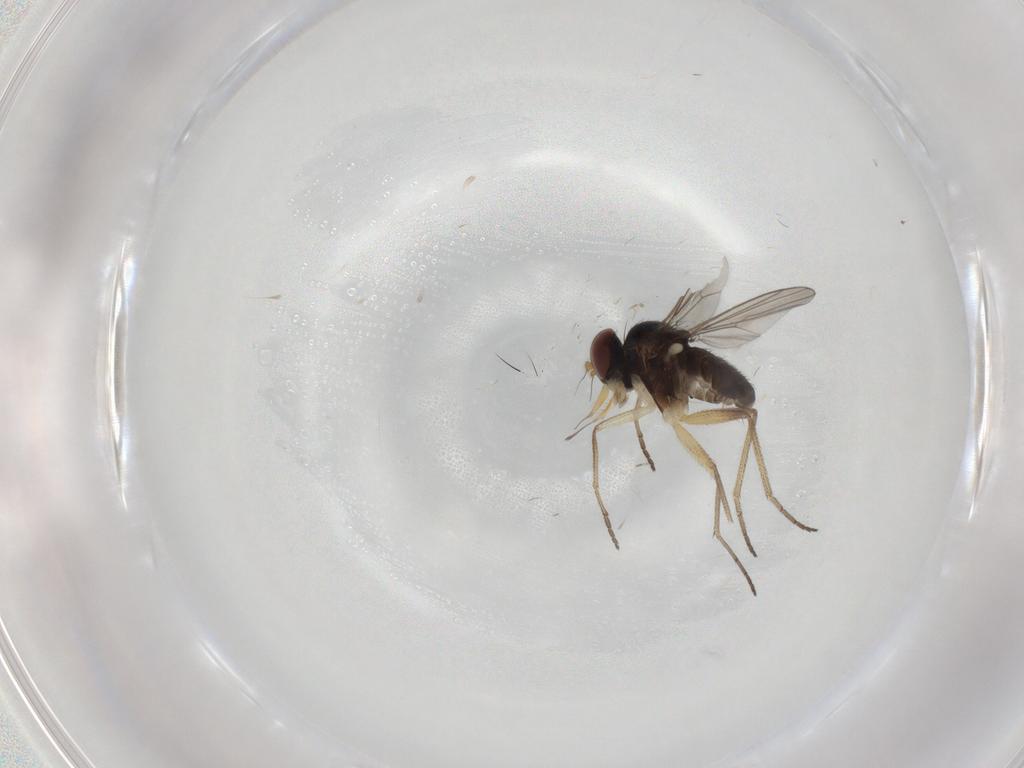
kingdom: Animalia
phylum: Arthropoda
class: Insecta
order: Diptera
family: Dolichopodidae
